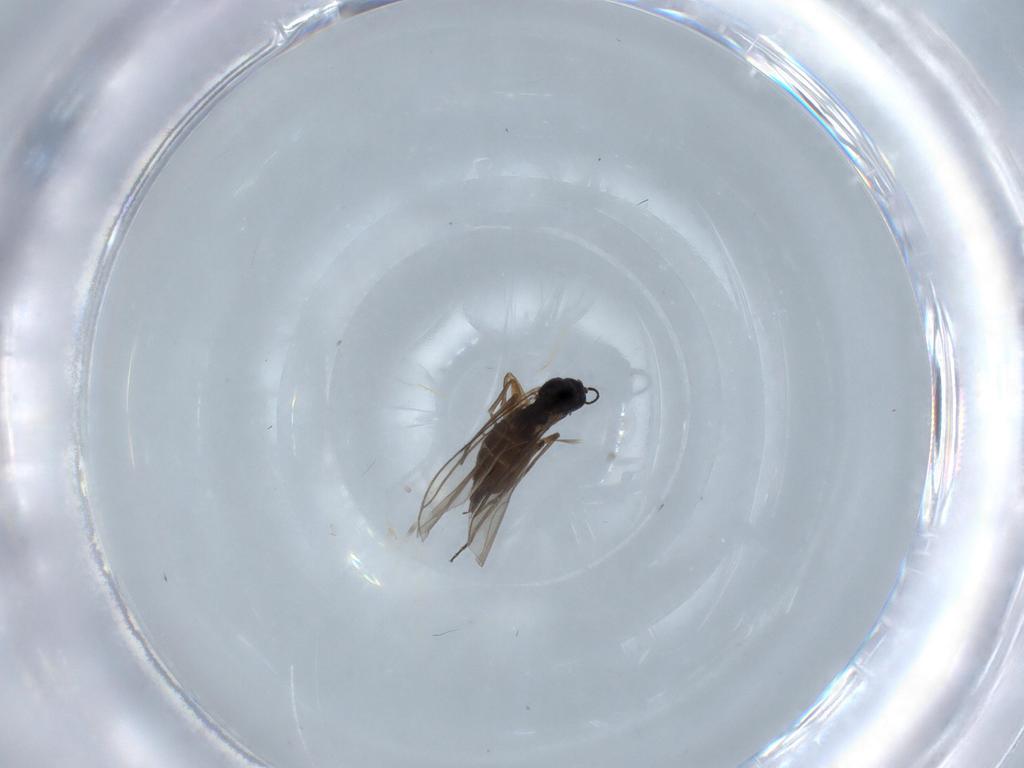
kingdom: Animalia
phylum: Arthropoda
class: Insecta
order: Diptera
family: Sciaridae
